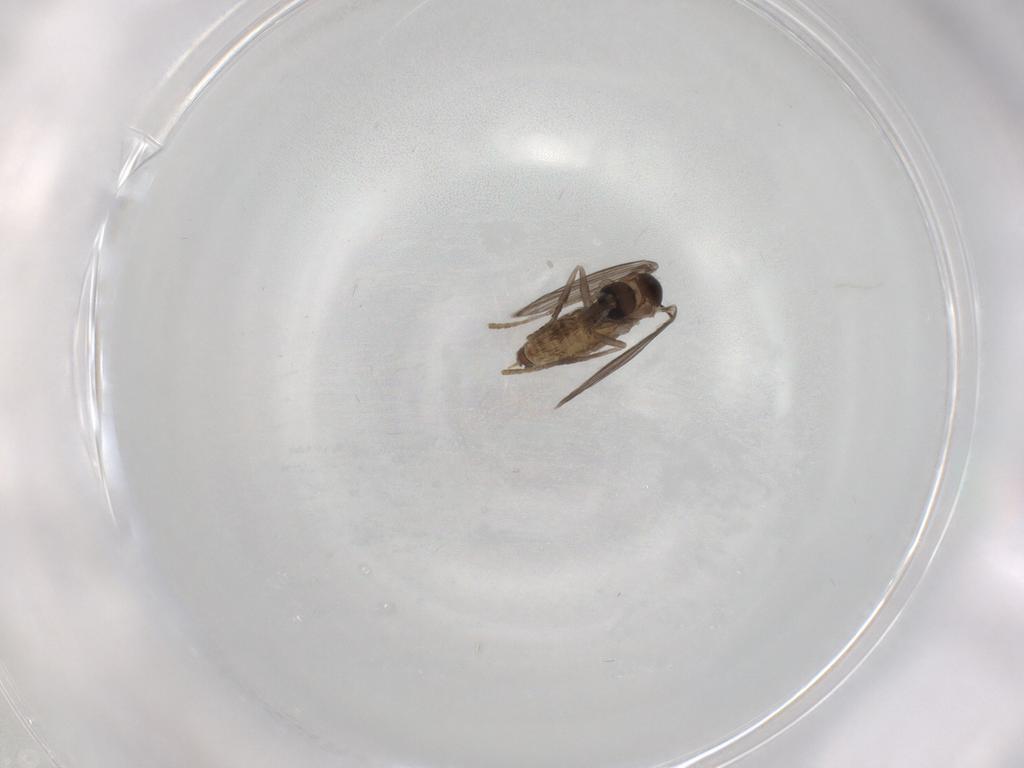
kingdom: Animalia
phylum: Arthropoda
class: Insecta
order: Diptera
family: Psychodidae
